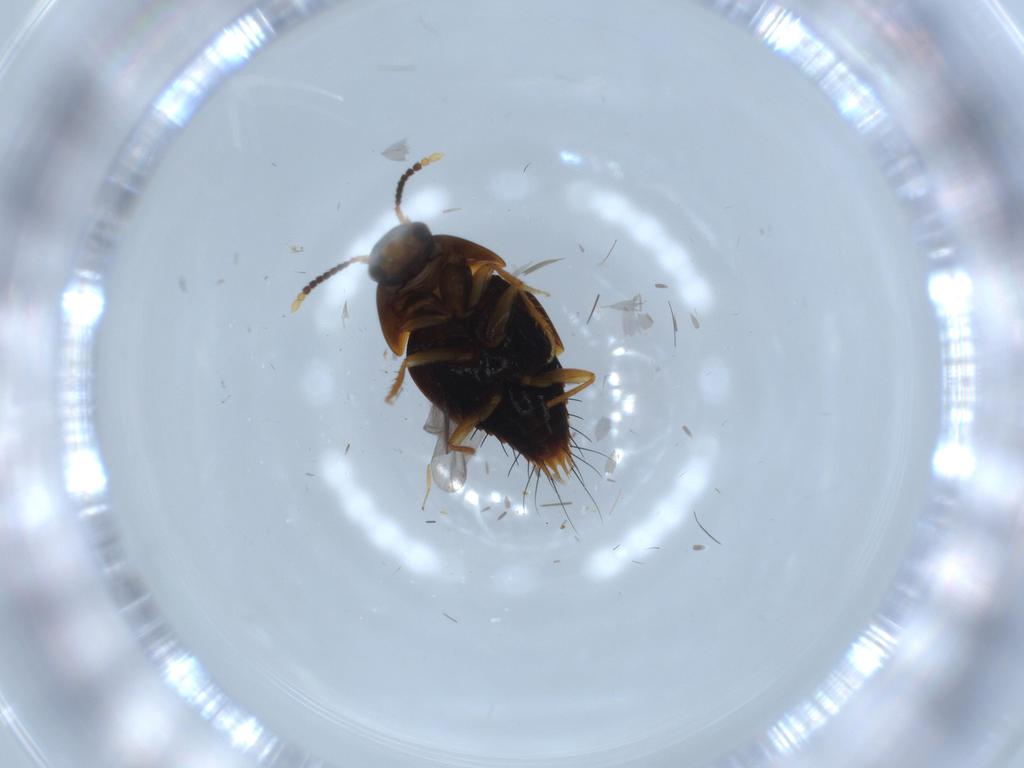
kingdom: Animalia
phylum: Arthropoda
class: Insecta
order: Coleoptera
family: Staphylinidae
